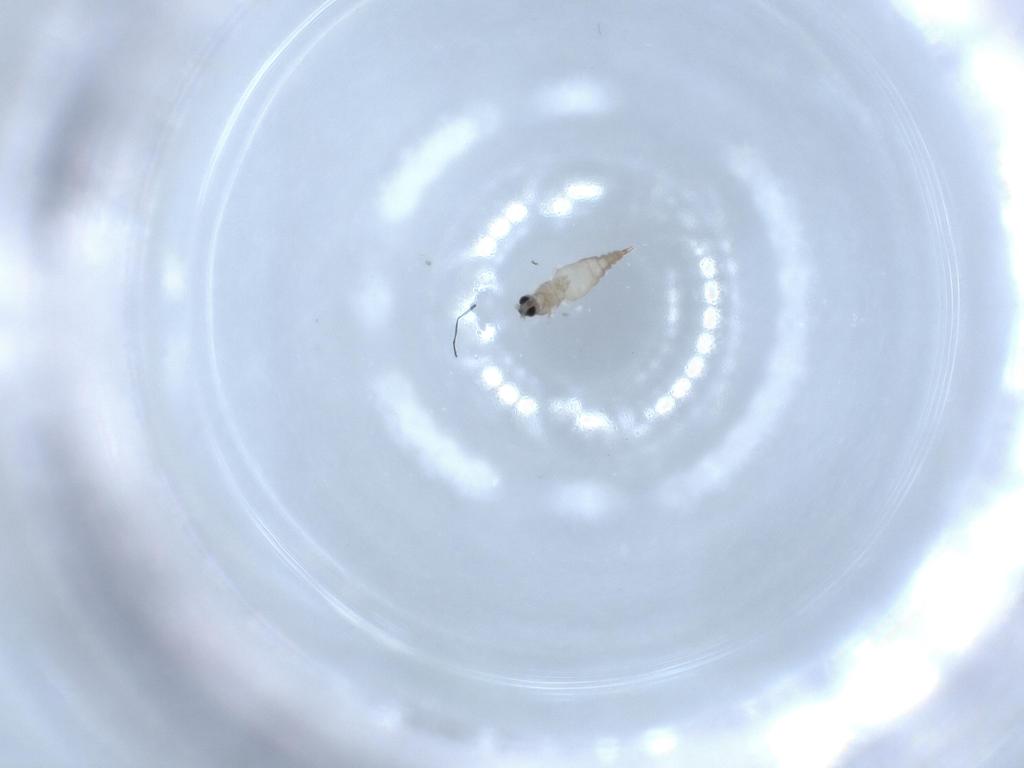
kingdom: Animalia
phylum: Arthropoda
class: Insecta
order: Diptera
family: Cecidomyiidae
